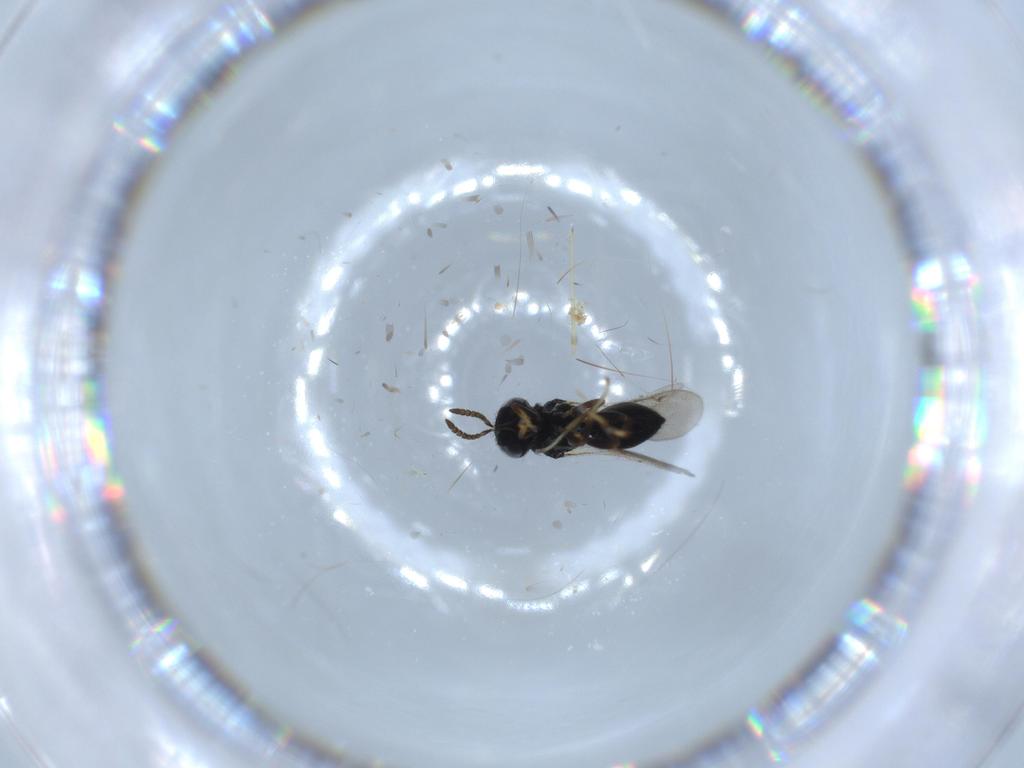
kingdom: Animalia
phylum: Arthropoda
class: Insecta
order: Hymenoptera
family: Pteromalidae
